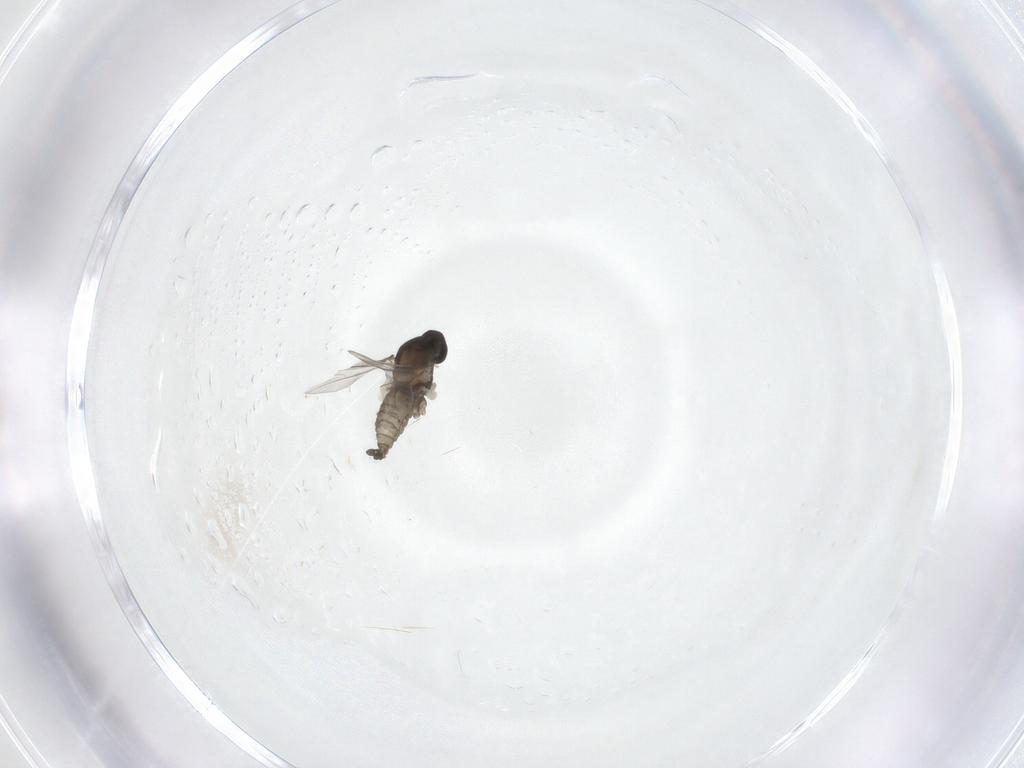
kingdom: Animalia
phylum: Arthropoda
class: Insecta
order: Diptera
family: Cecidomyiidae
